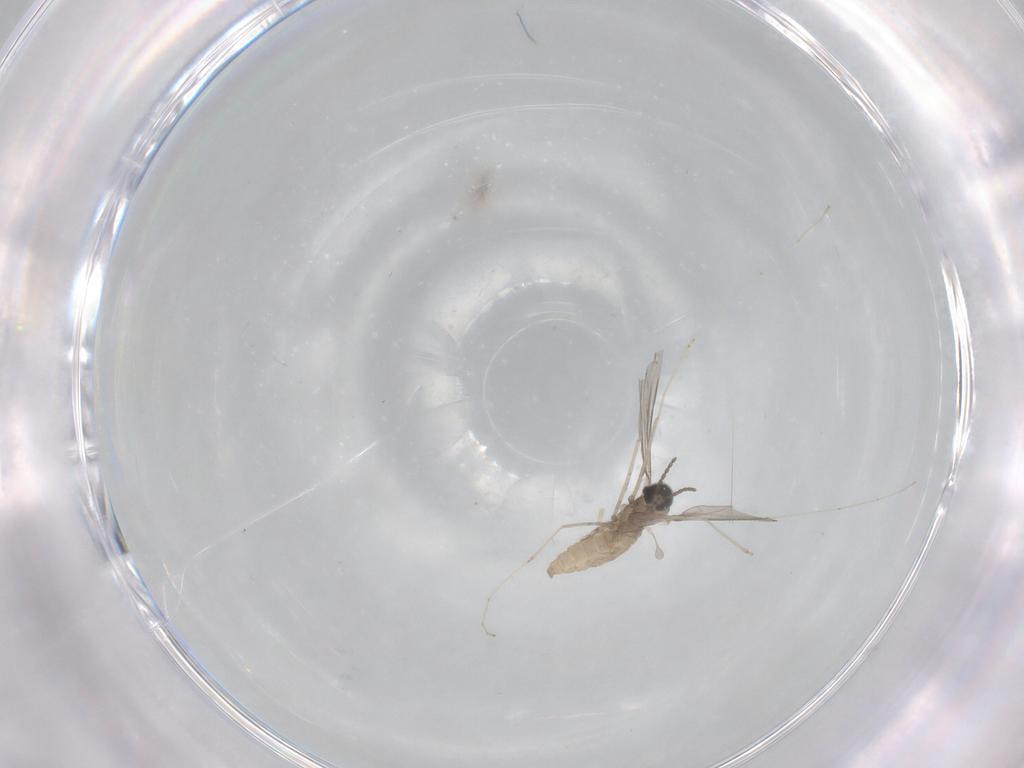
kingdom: Animalia
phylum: Arthropoda
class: Insecta
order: Diptera
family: Cecidomyiidae
